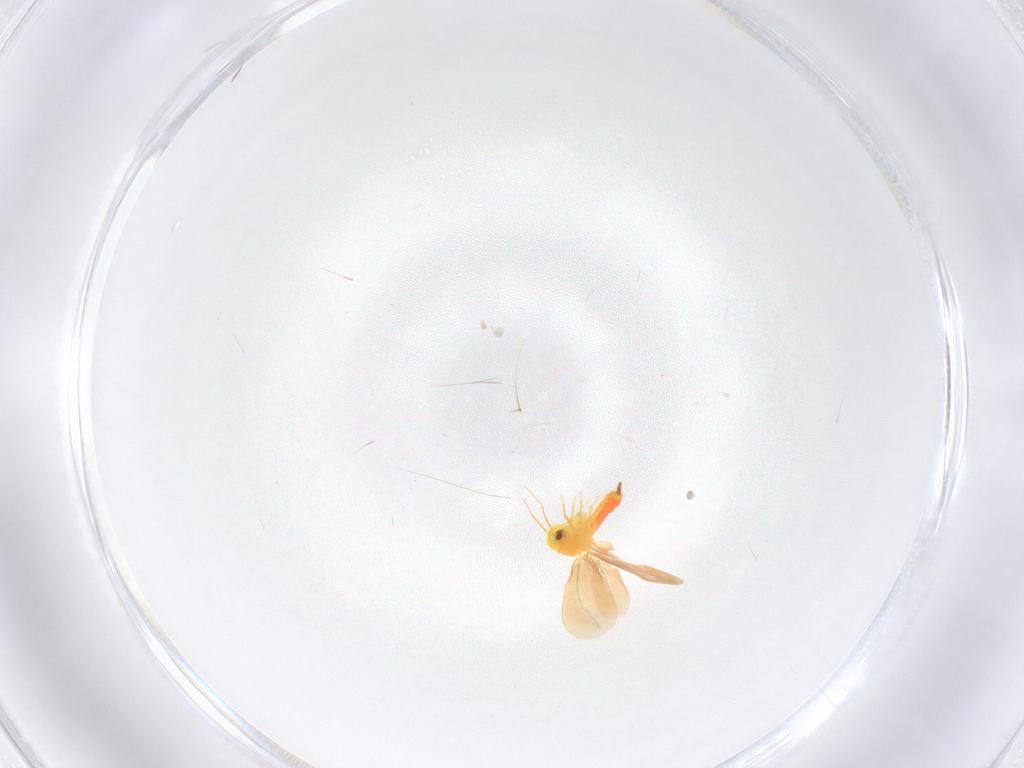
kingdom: Animalia
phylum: Arthropoda
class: Insecta
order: Hemiptera
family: Aleyrodidae
